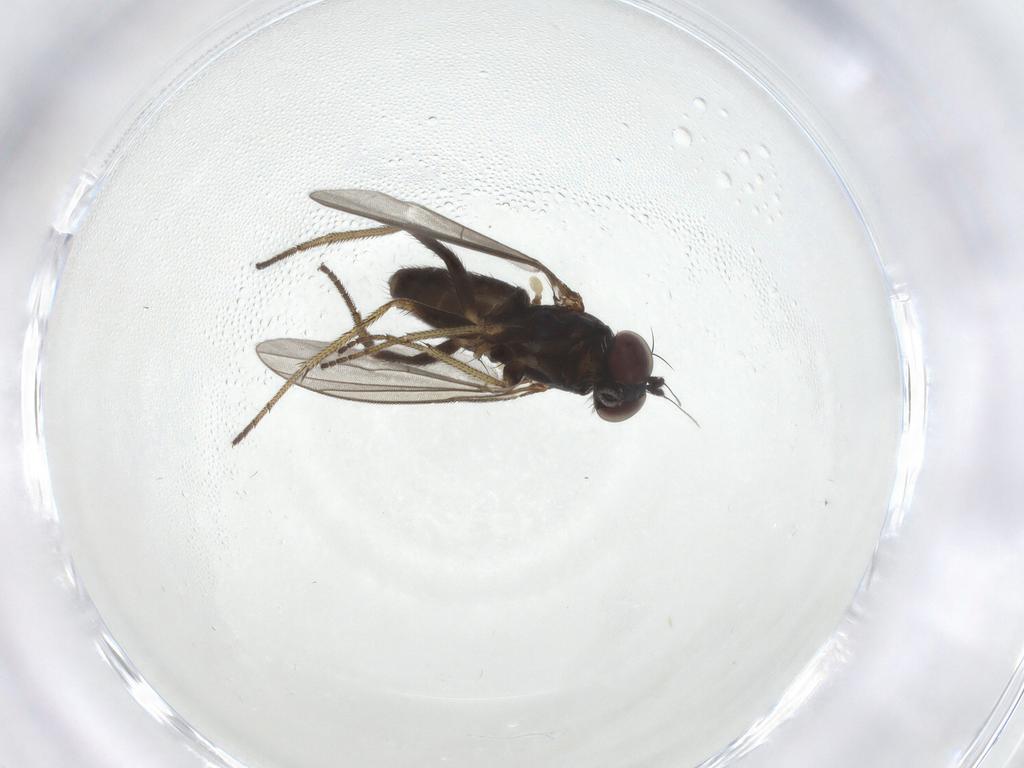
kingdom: Animalia
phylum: Arthropoda
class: Insecta
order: Diptera
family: Dolichopodidae
